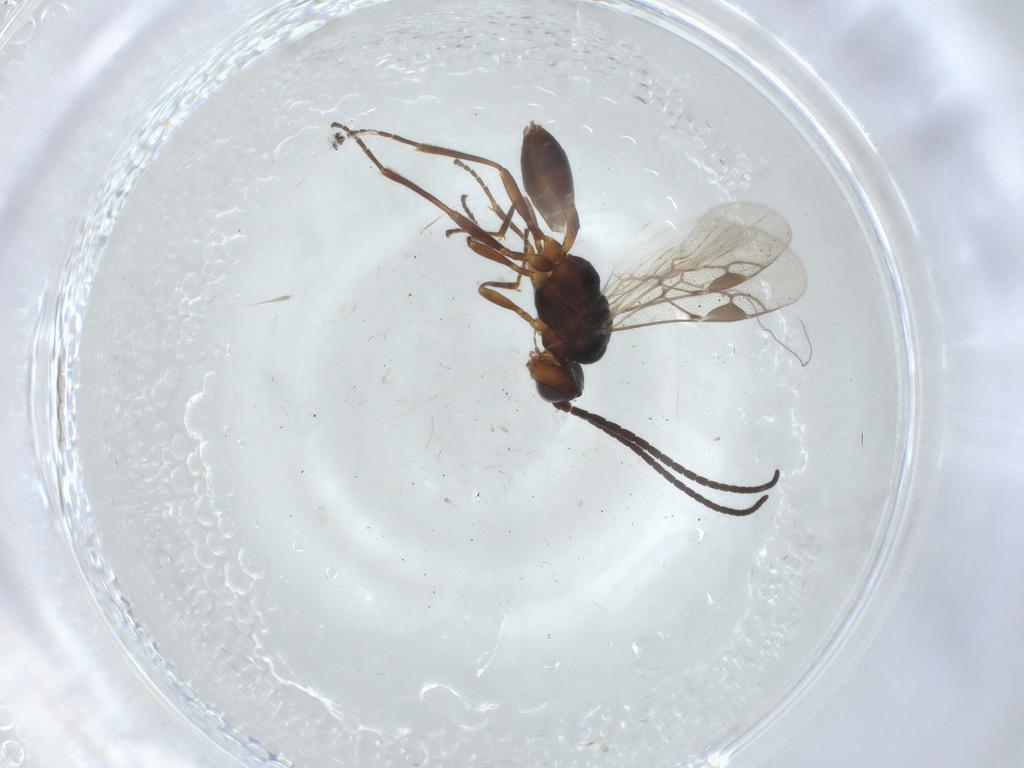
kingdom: Animalia
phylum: Arthropoda
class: Insecta
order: Hymenoptera
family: Braconidae
